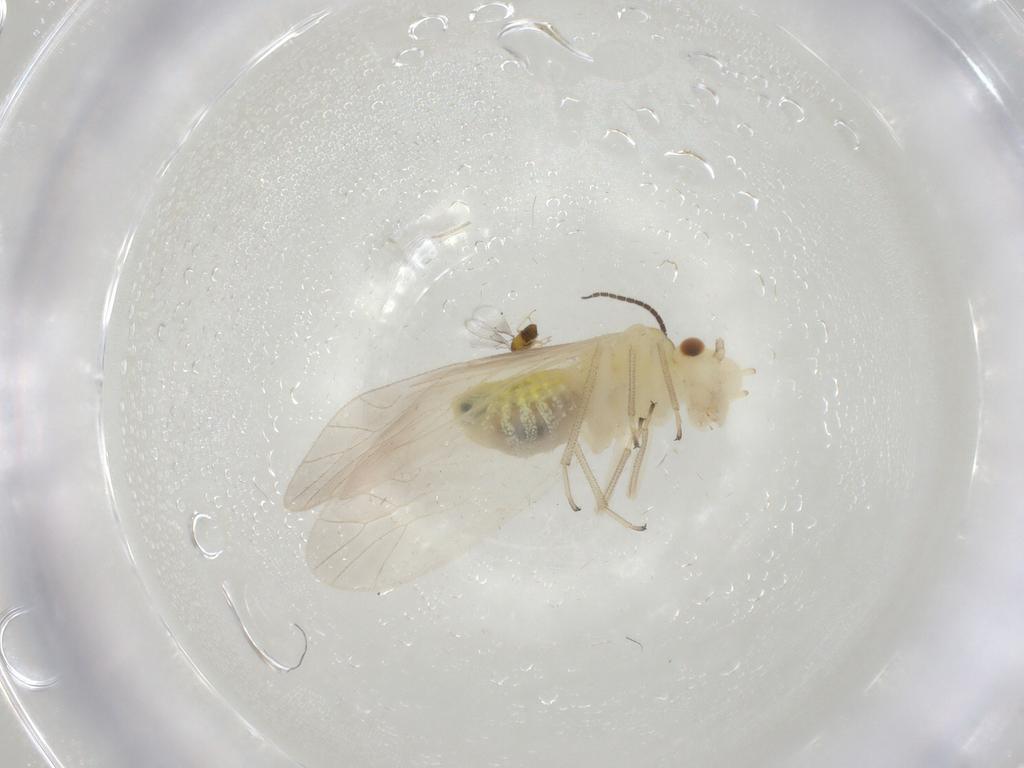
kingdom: Animalia
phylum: Arthropoda
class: Insecta
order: Psocodea
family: Caeciliusidae
